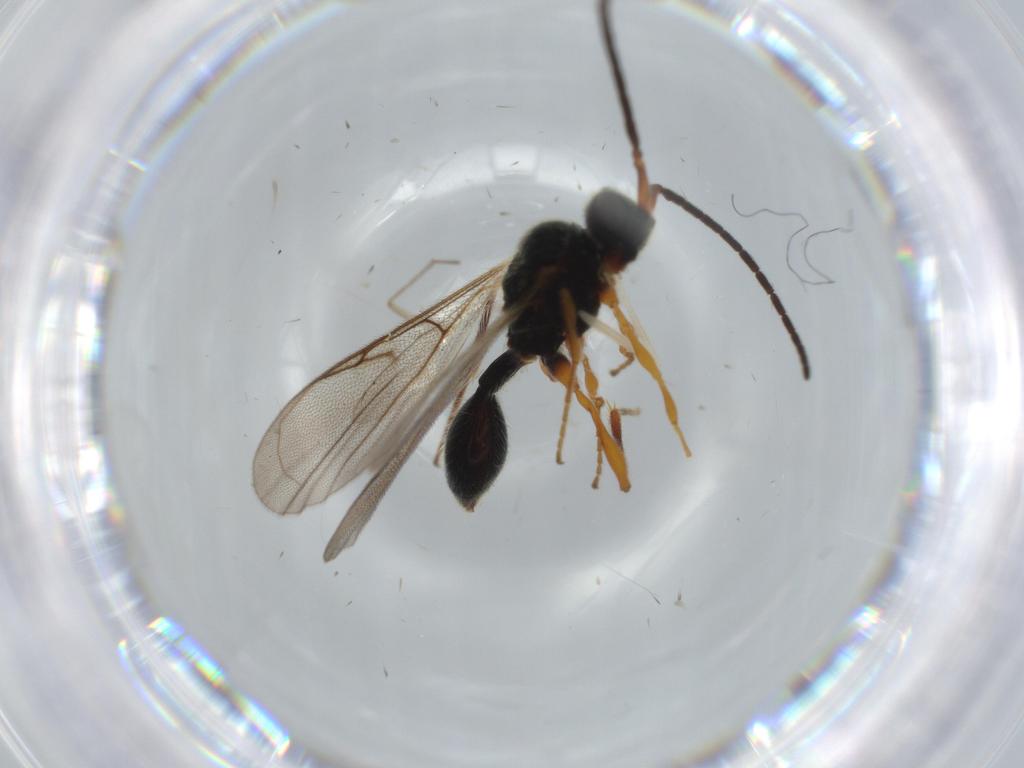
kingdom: Animalia
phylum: Arthropoda
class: Insecta
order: Hymenoptera
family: Diapriidae
